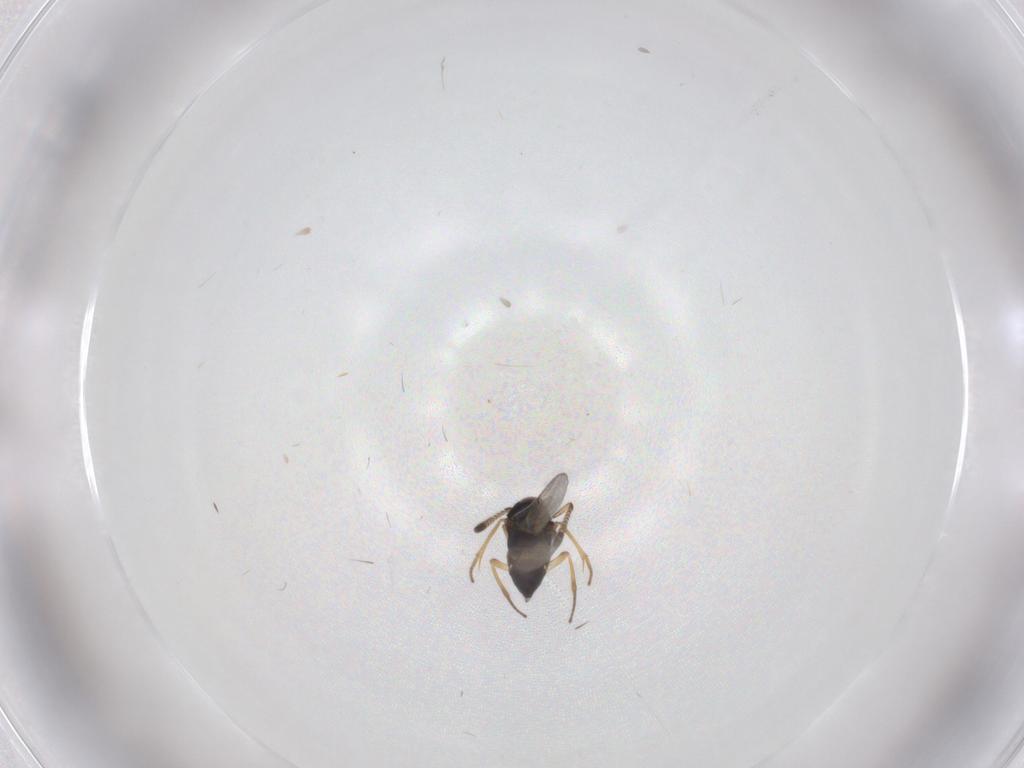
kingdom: Animalia
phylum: Arthropoda
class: Insecta
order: Hymenoptera
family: Encyrtidae
